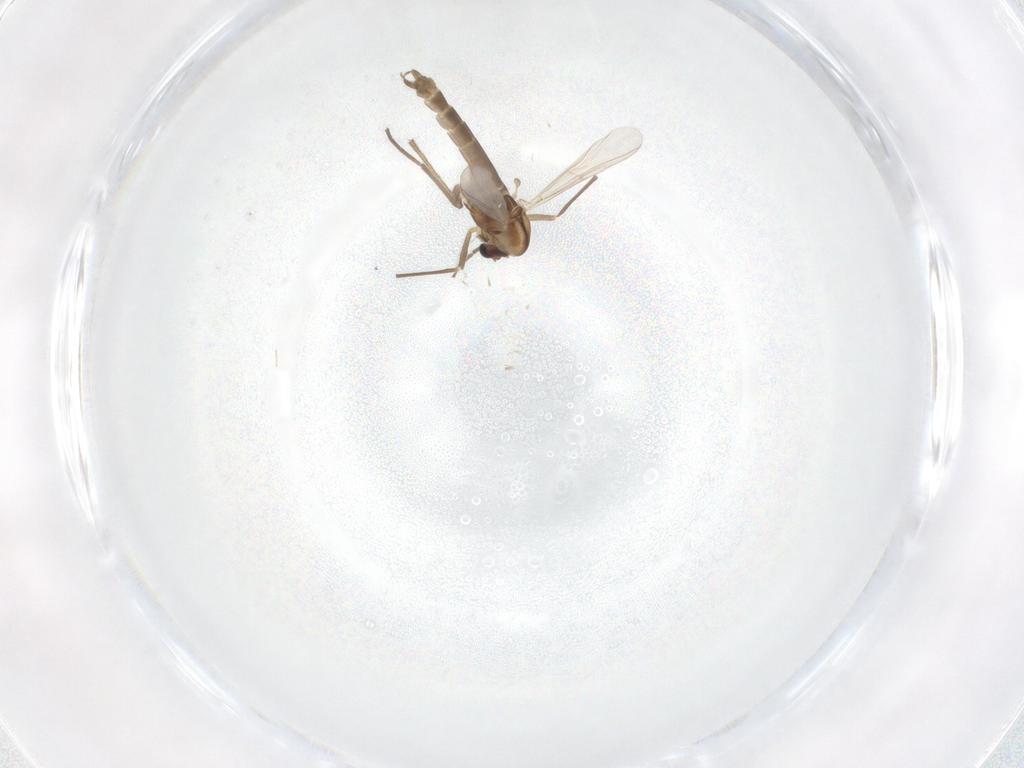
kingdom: Animalia
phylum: Arthropoda
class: Insecta
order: Diptera
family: Chironomidae
